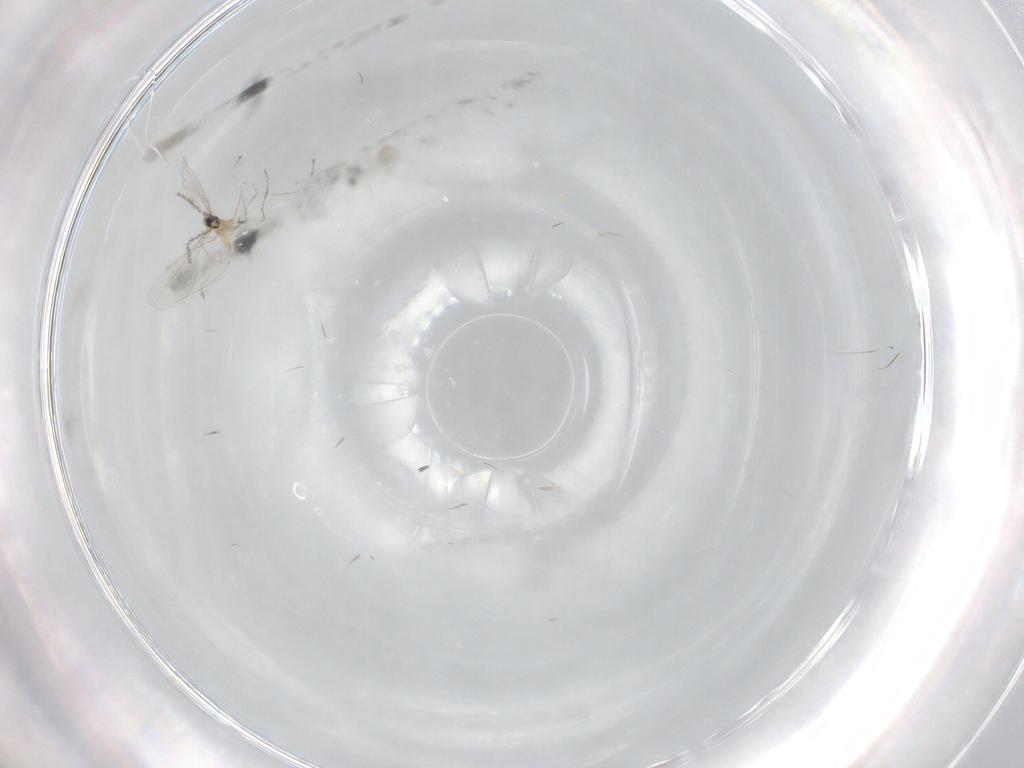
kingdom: Animalia
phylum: Arthropoda
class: Insecta
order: Diptera
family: Cecidomyiidae
